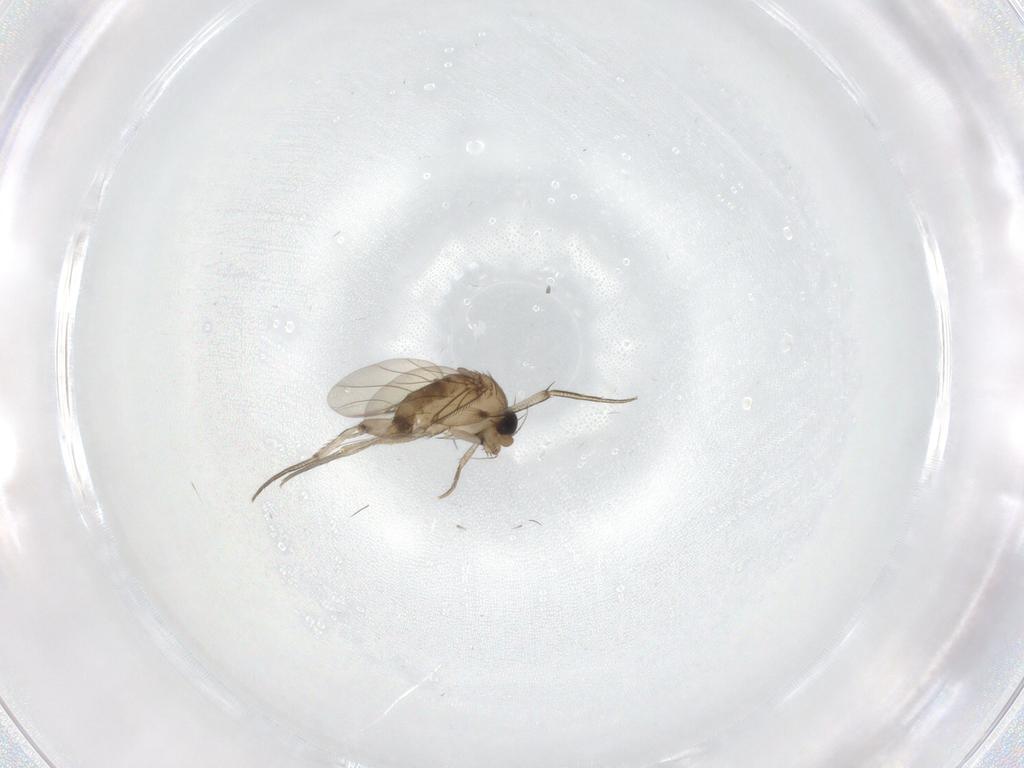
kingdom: Animalia
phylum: Arthropoda
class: Insecta
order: Diptera
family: Phoridae
